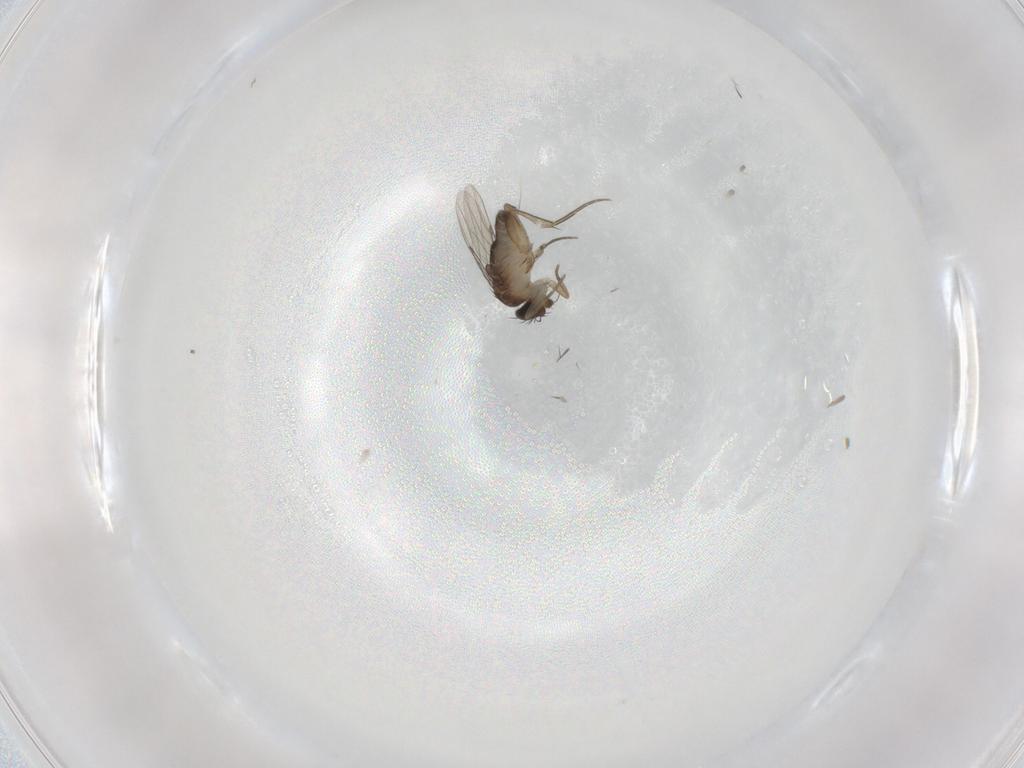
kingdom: Animalia
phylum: Arthropoda
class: Insecta
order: Diptera
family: Phoridae
